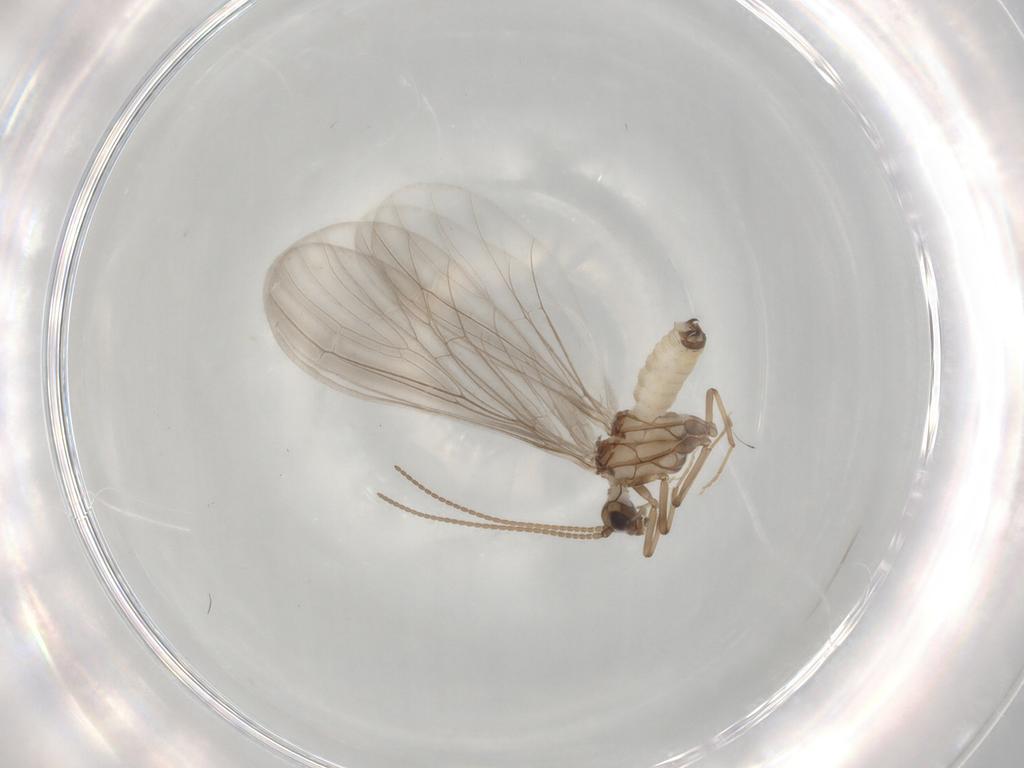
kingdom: Animalia
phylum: Arthropoda
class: Insecta
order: Neuroptera
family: Coniopterygidae
